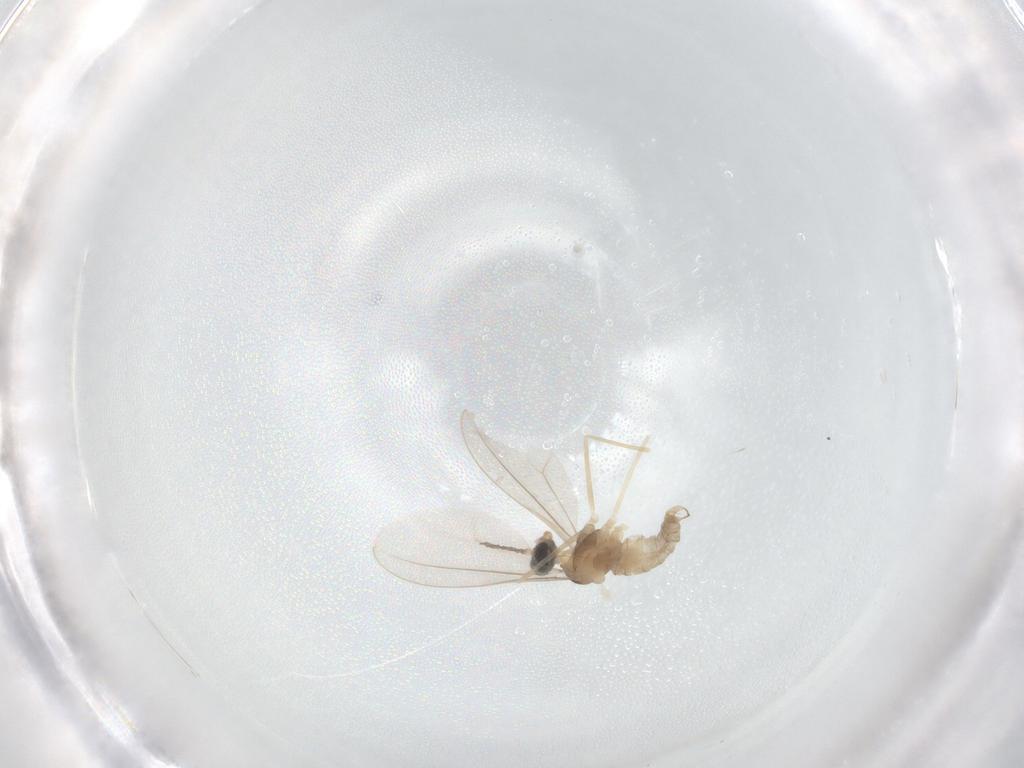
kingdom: Animalia
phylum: Arthropoda
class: Insecta
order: Diptera
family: Cecidomyiidae
